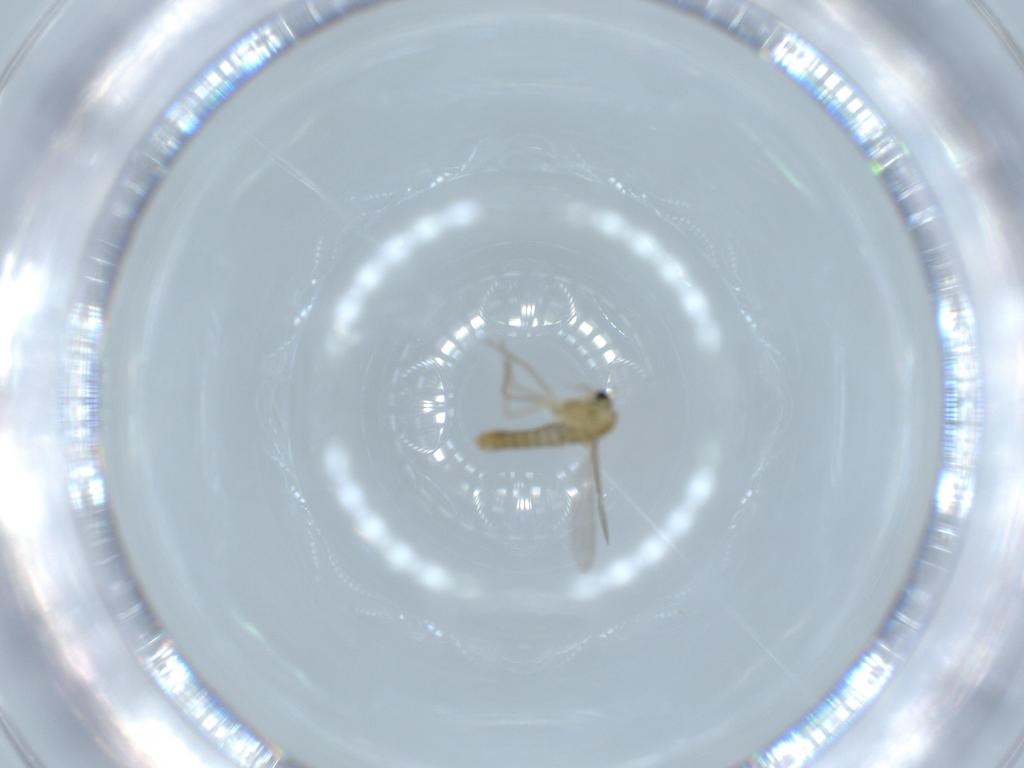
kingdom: Animalia
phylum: Arthropoda
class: Insecta
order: Diptera
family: Chironomidae
